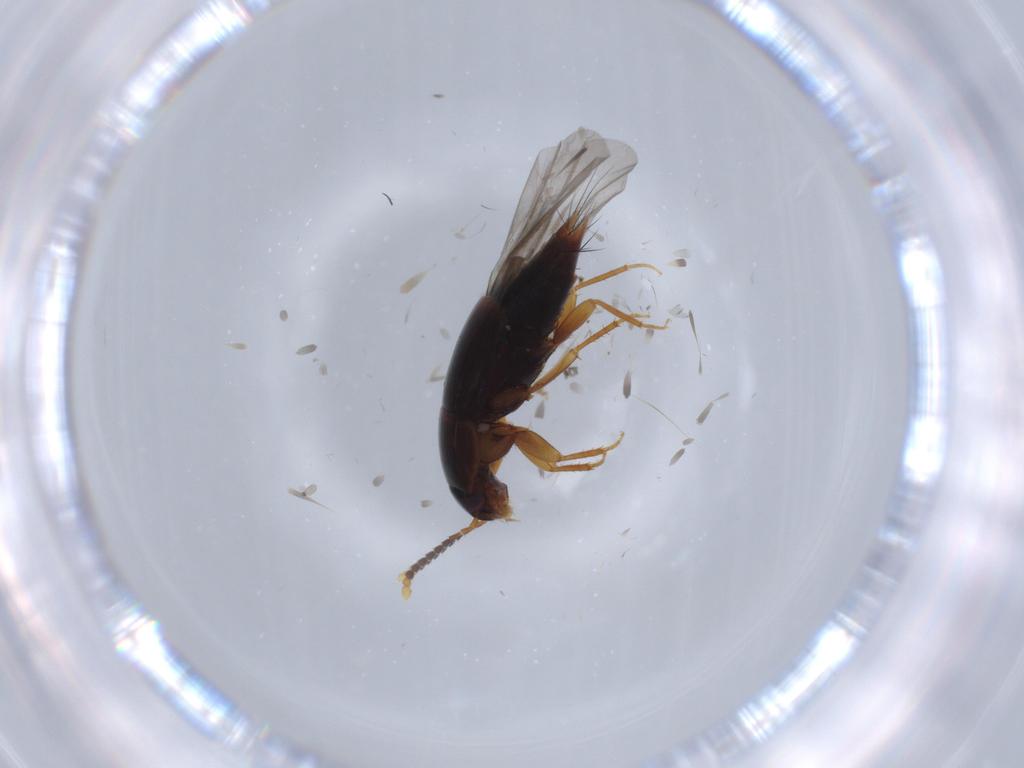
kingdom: Animalia
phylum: Arthropoda
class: Insecta
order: Coleoptera
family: Staphylinidae
